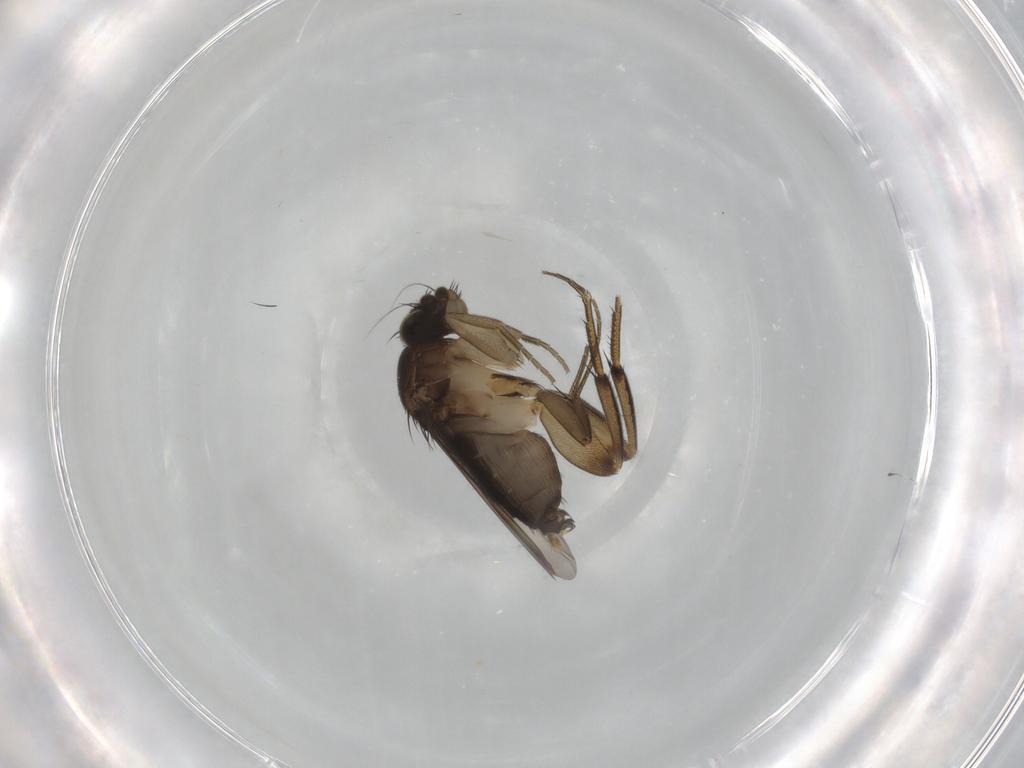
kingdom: Animalia
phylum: Arthropoda
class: Insecta
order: Diptera
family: Phoridae
